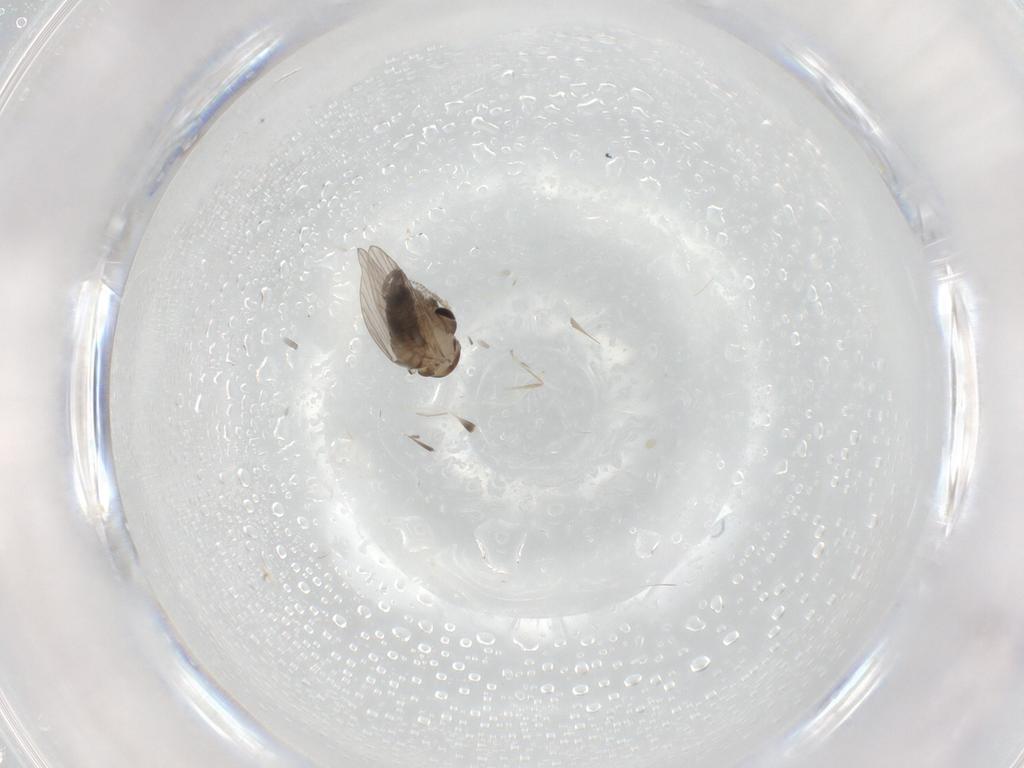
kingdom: Animalia
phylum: Arthropoda
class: Insecta
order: Diptera
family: Psychodidae
